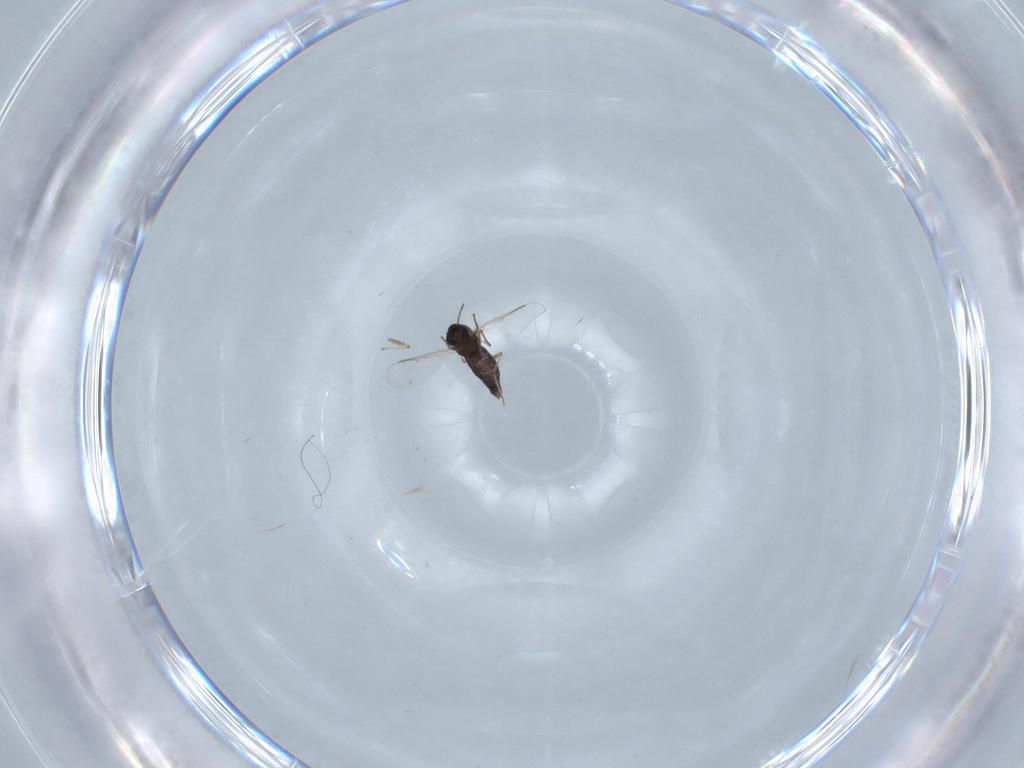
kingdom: Animalia
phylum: Arthropoda
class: Insecta
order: Diptera
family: Chironomidae
